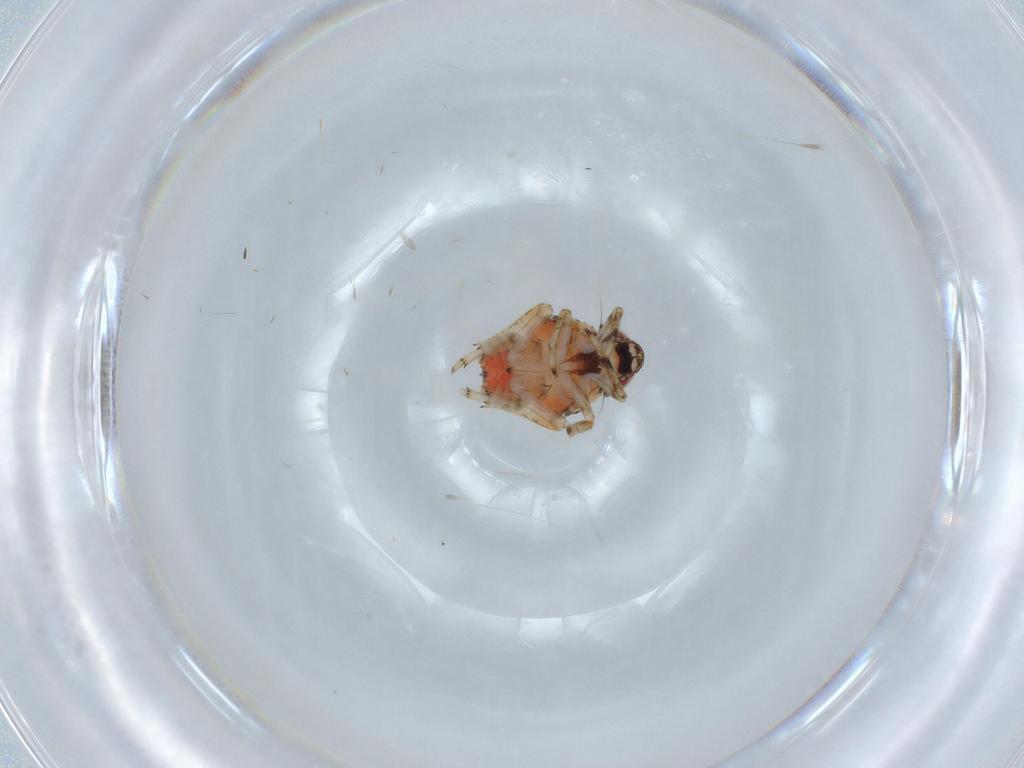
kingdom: Animalia
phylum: Arthropoda
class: Insecta
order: Hemiptera
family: Issidae
